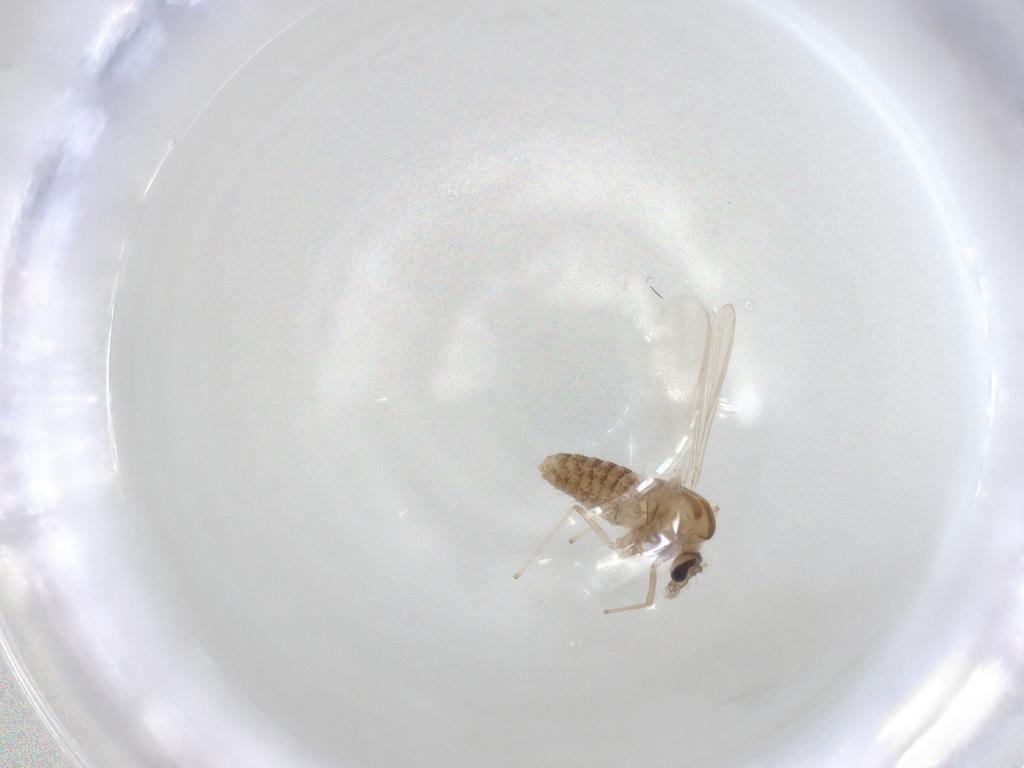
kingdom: Animalia
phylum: Arthropoda
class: Insecta
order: Diptera
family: Chironomidae
